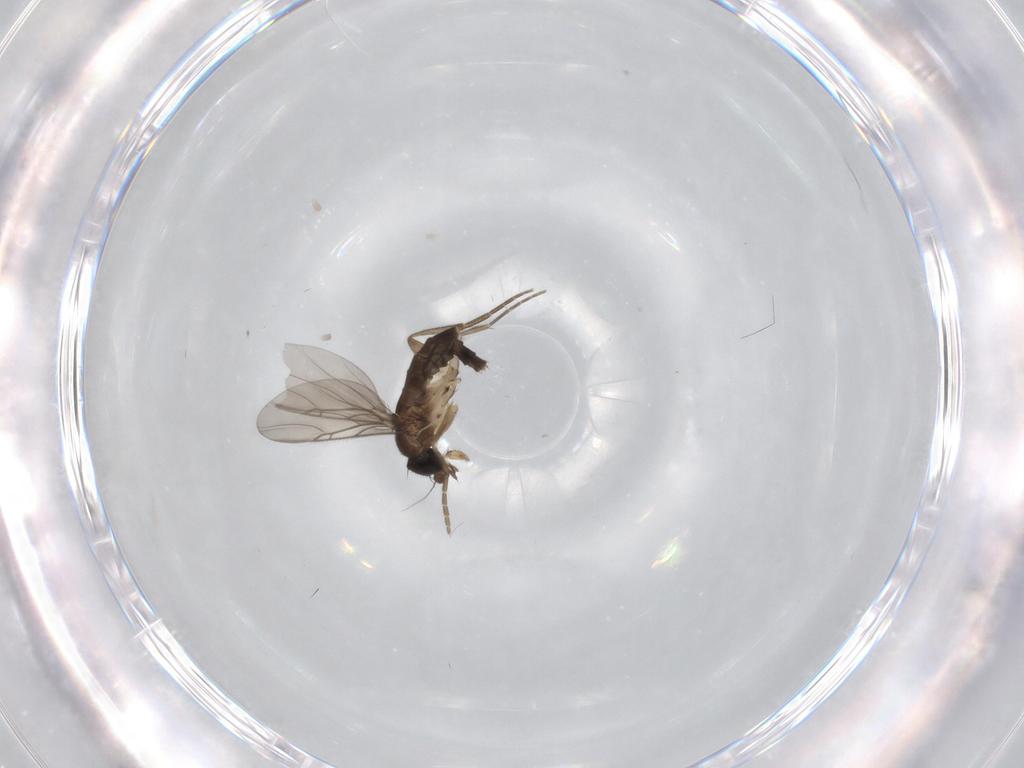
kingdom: Animalia
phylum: Arthropoda
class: Insecta
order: Diptera
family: Phoridae
